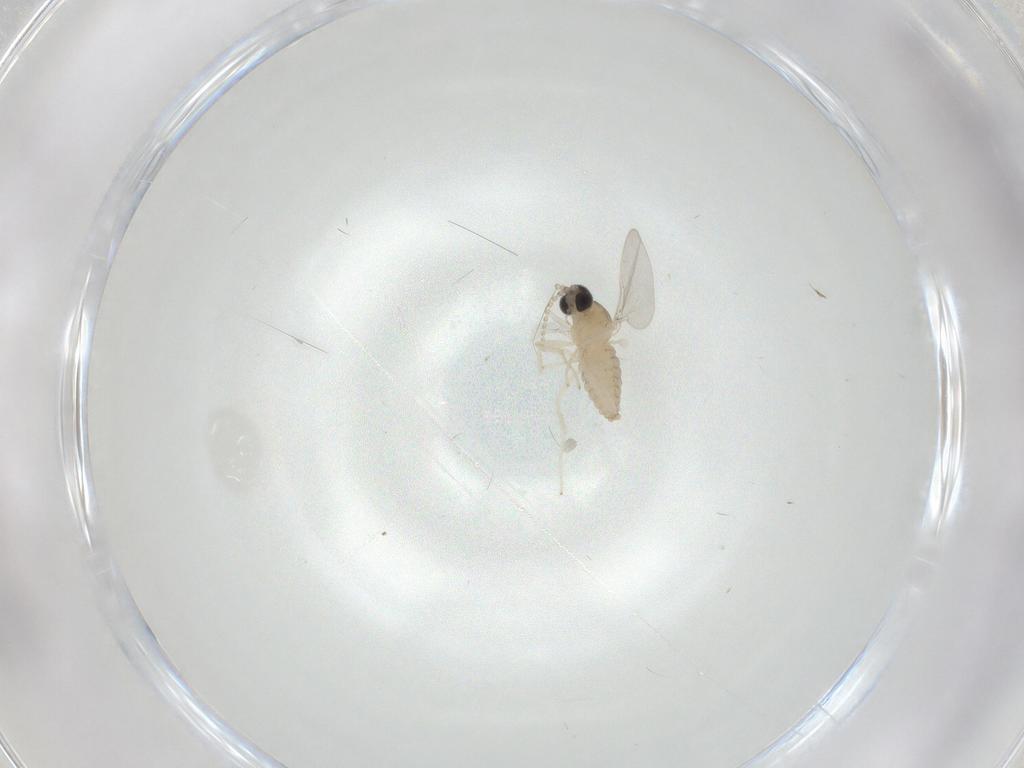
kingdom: Animalia
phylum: Arthropoda
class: Insecta
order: Diptera
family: Cecidomyiidae
